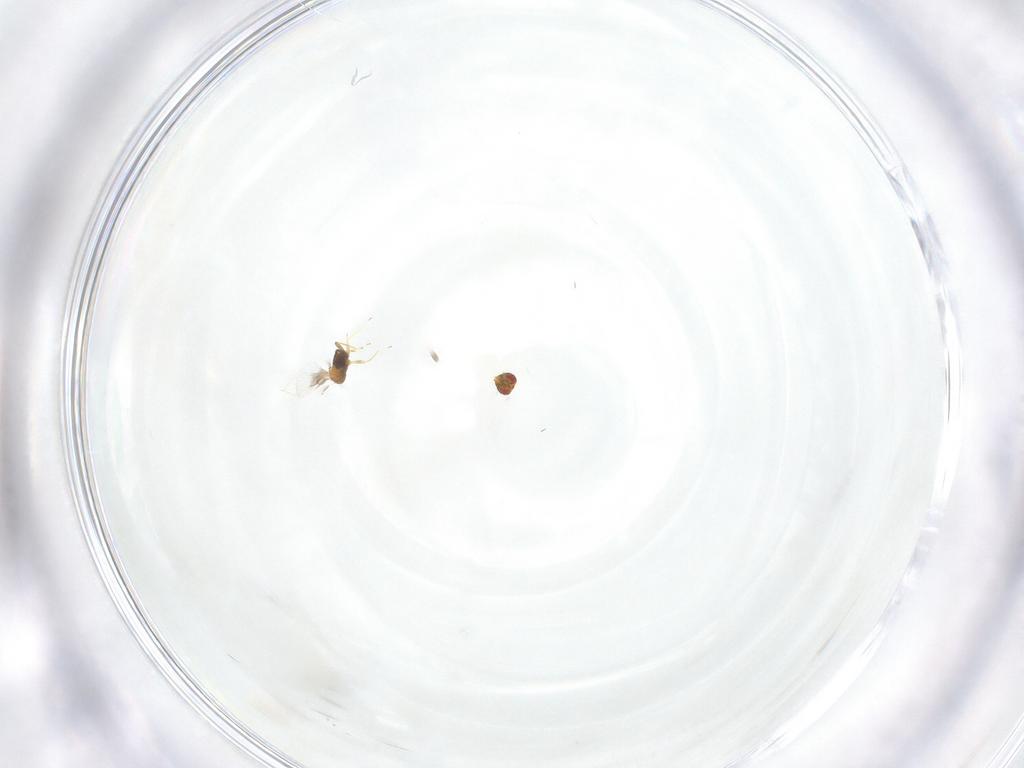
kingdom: Animalia
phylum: Arthropoda
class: Insecta
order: Hymenoptera
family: Trichogrammatidae
